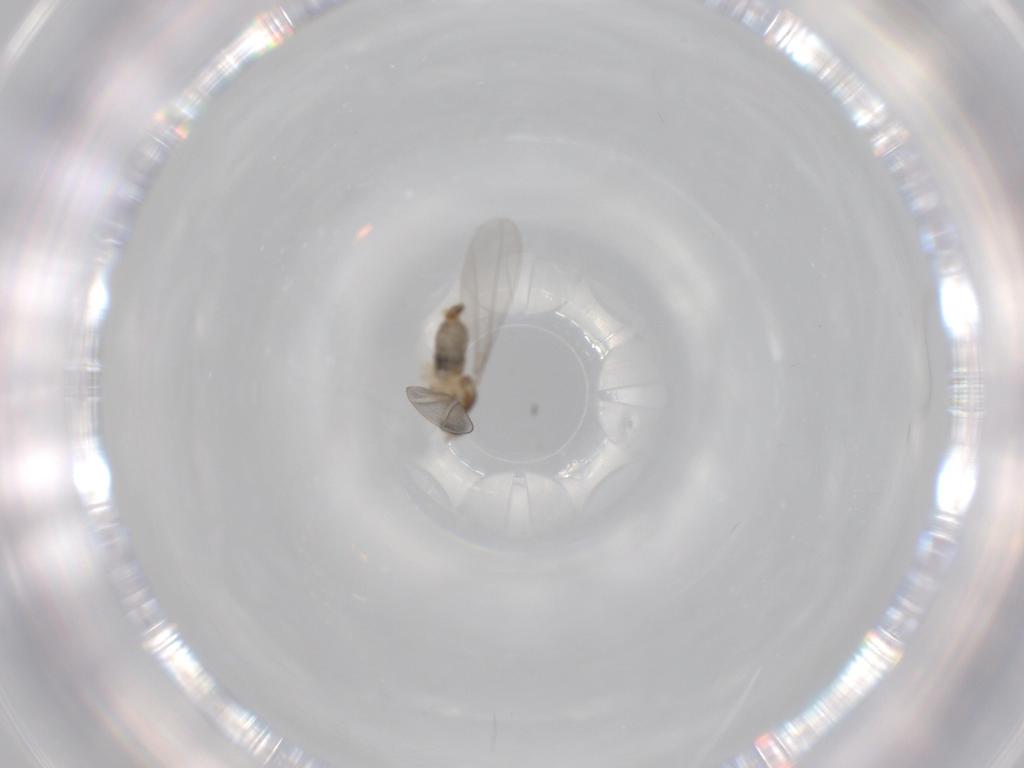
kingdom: Animalia
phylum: Arthropoda
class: Insecta
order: Diptera
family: Cecidomyiidae
